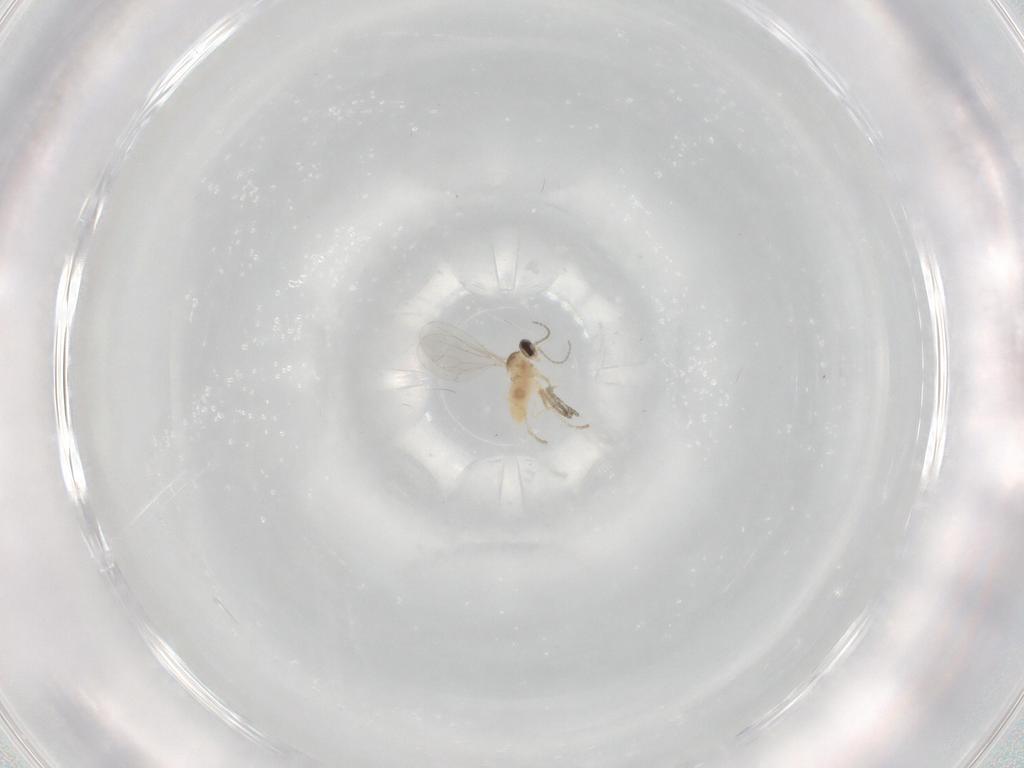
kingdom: Animalia
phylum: Arthropoda
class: Insecta
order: Diptera
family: Cecidomyiidae
